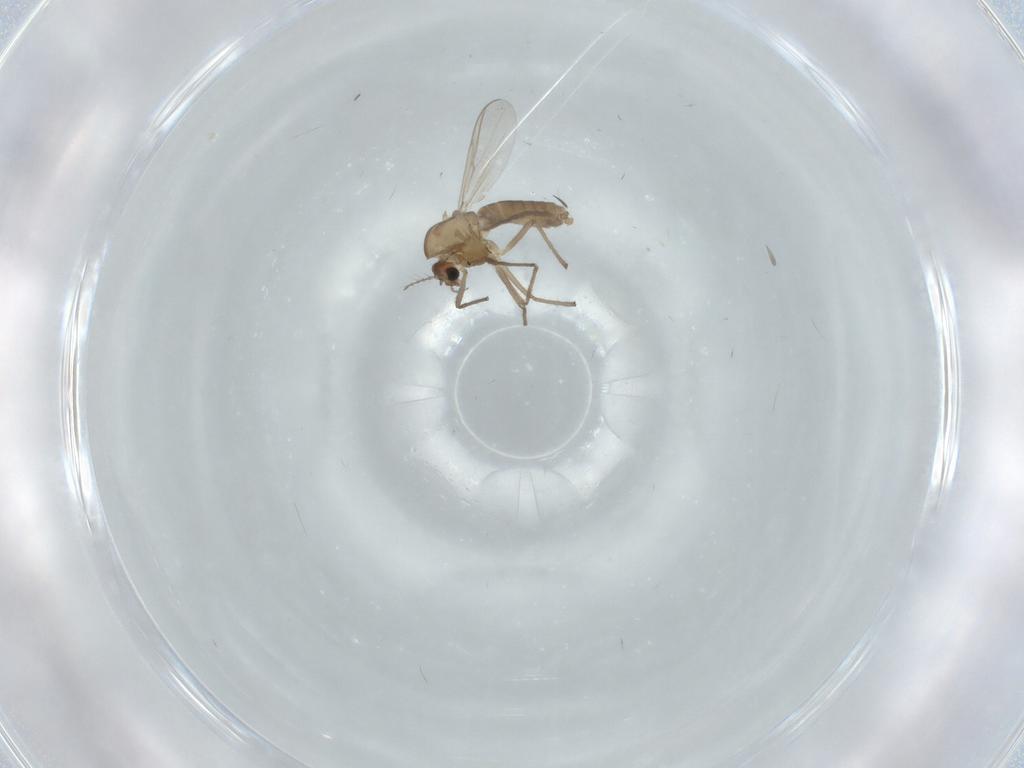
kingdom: Animalia
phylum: Arthropoda
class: Insecta
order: Diptera
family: Chironomidae
